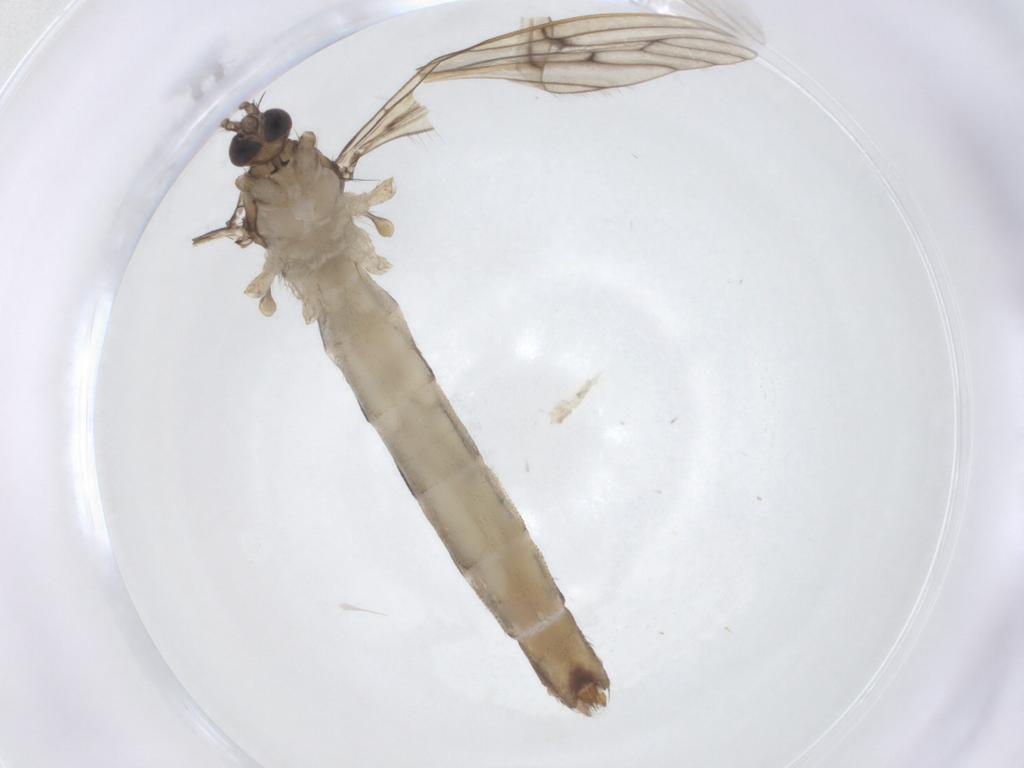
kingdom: Animalia
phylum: Arthropoda
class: Insecta
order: Diptera
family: Limoniidae
